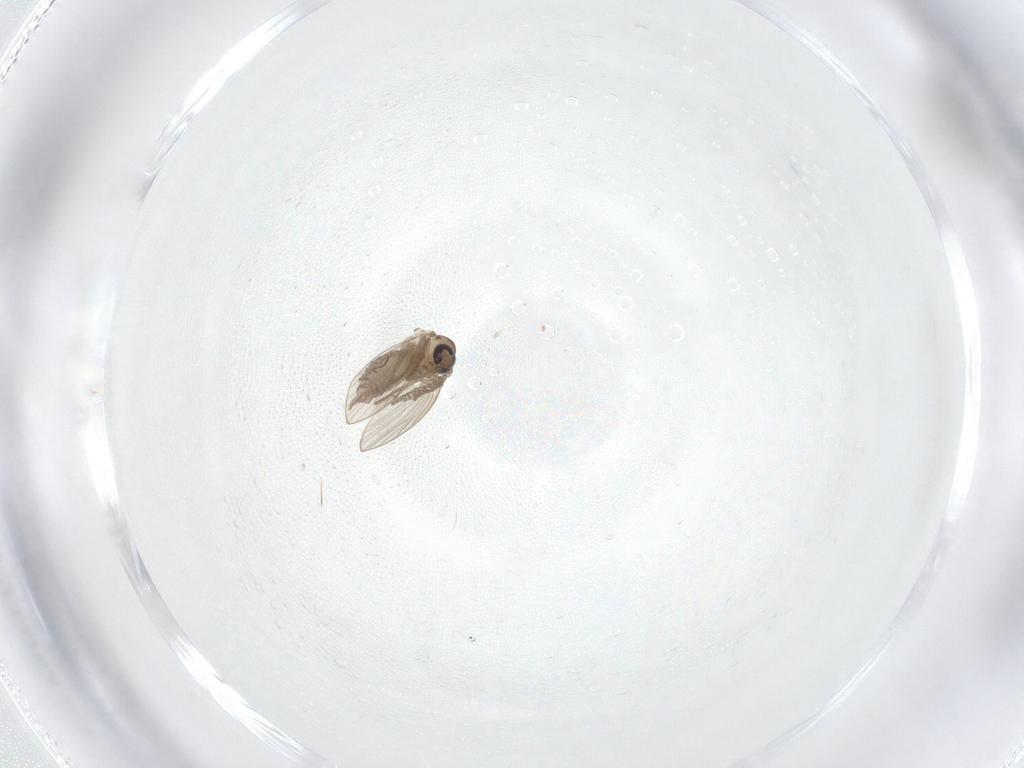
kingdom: Animalia
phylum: Arthropoda
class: Insecta
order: Diptera
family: Psychodidae
